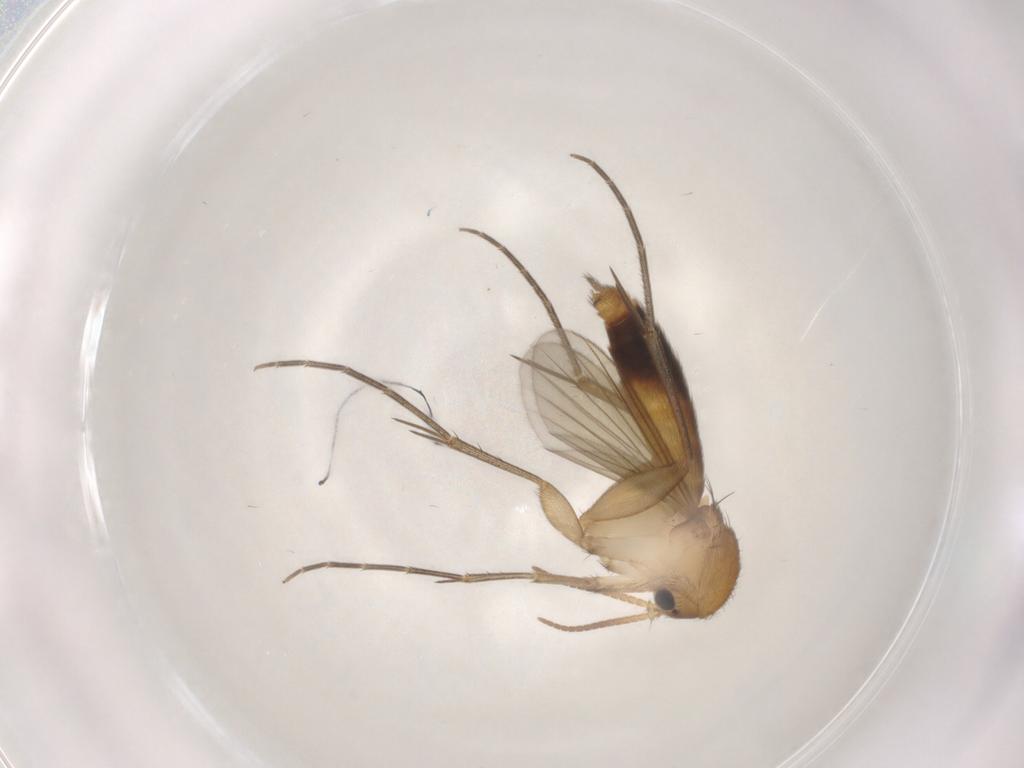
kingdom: Animalia
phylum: Arthropoda
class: Insecta
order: Diptera
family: Mycetophilidae
